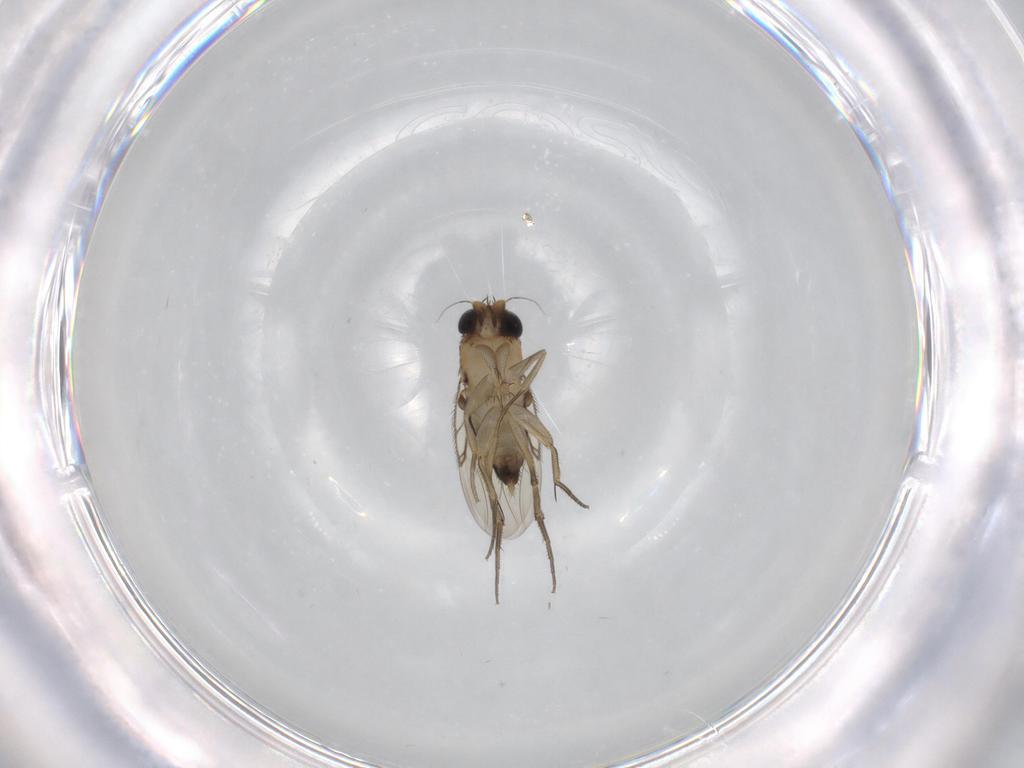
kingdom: Animalia
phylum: Arthropoda
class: Insecta
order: Diptera
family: Phoridae
